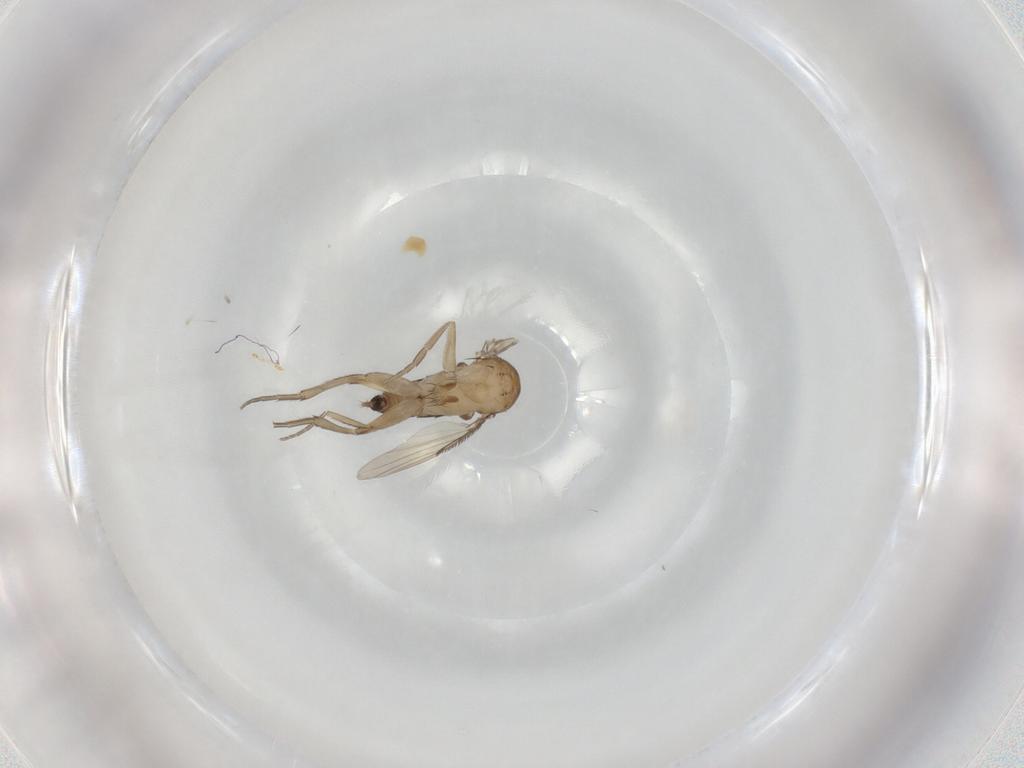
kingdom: Animalia
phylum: Arthropoda
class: Insecta
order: Diptera
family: Phoridae
